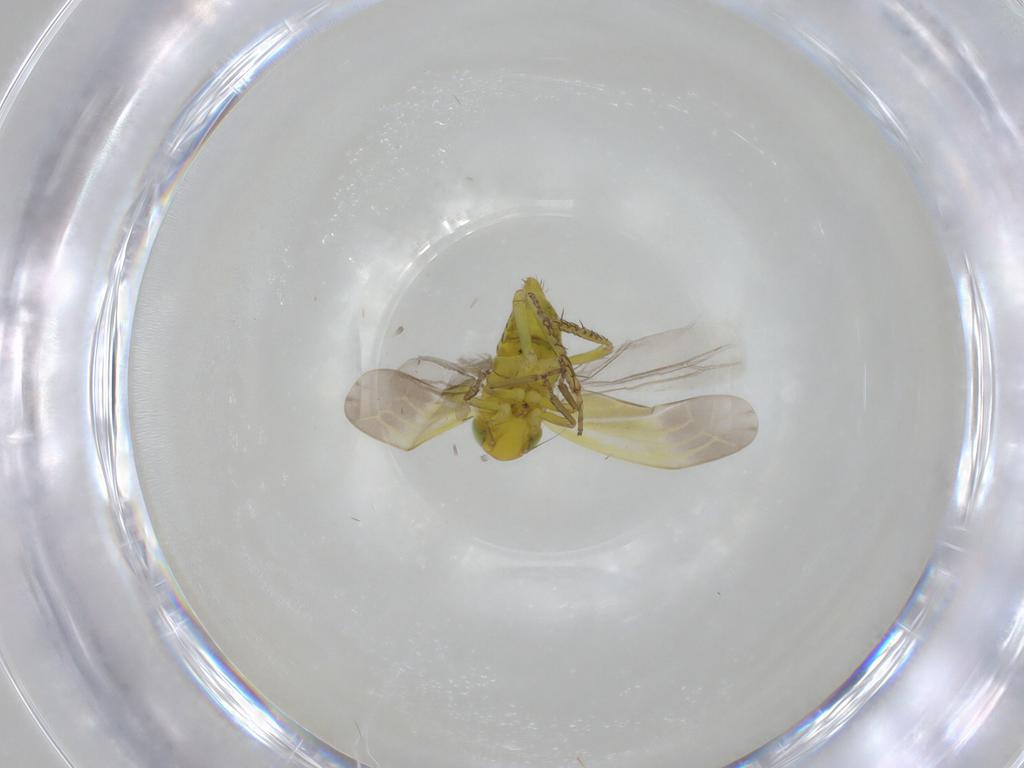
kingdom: Animalia
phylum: Arthropoda
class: Insecta
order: Hemiptera
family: Cicadellidae
